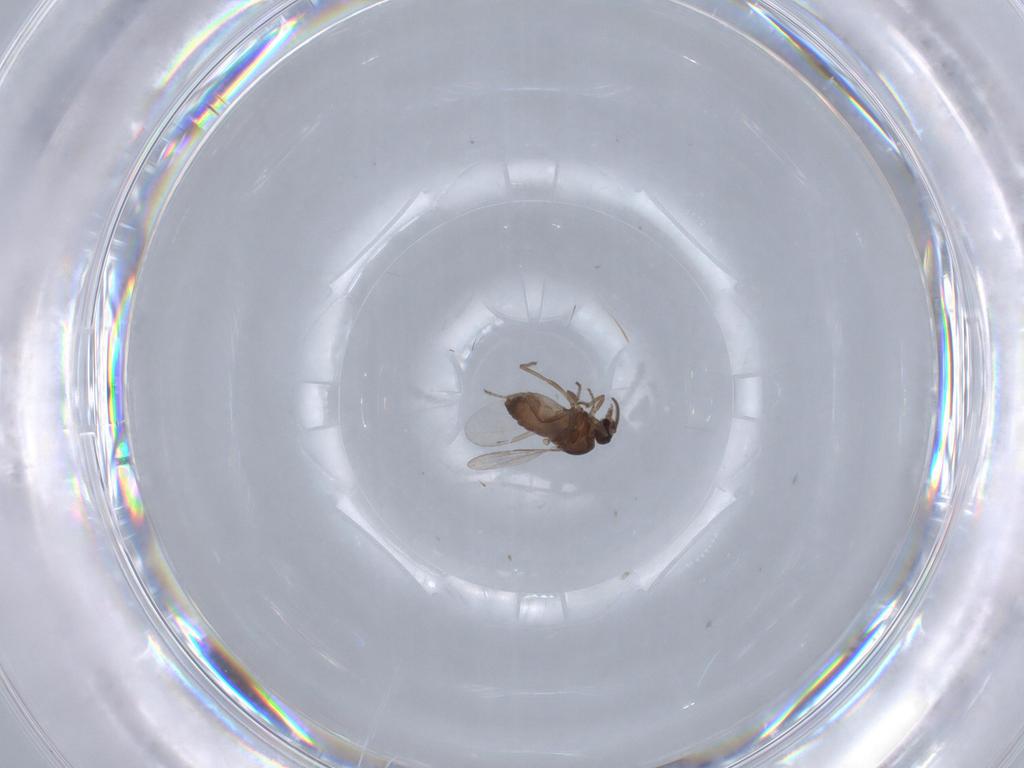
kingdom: Animalia
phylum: Arthropoda
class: Insecta
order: Diptera
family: Ceratopogonidae
